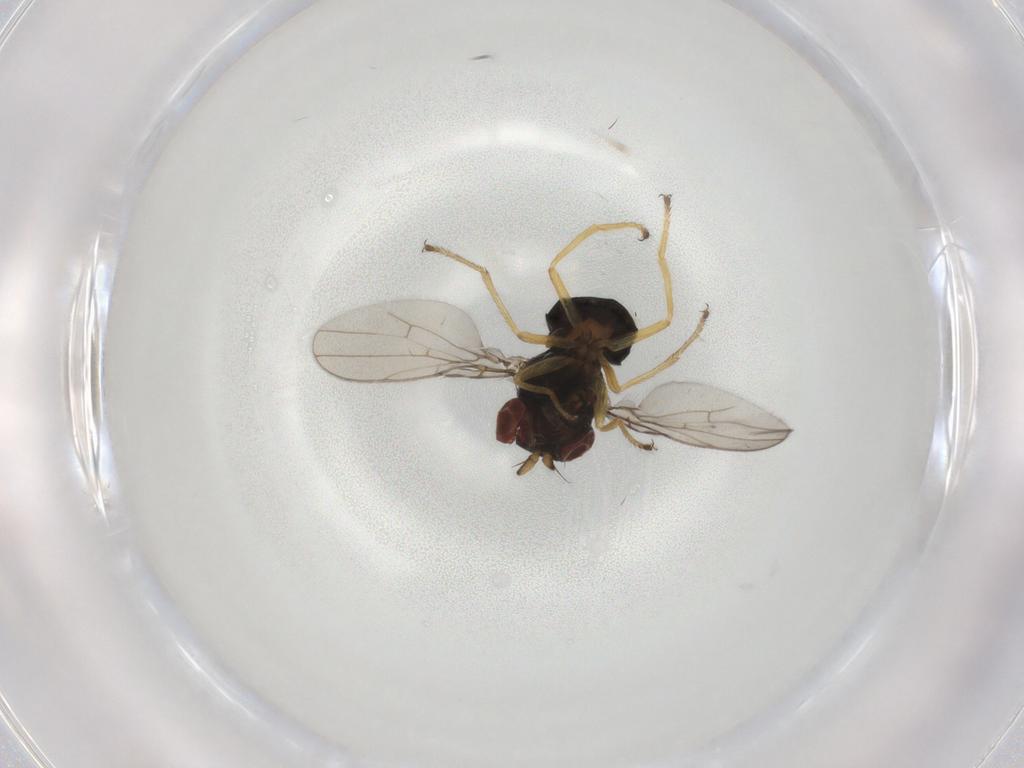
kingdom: Animalia
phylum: Arthropoda
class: Insecta
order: Diptera
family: Ephydridae
